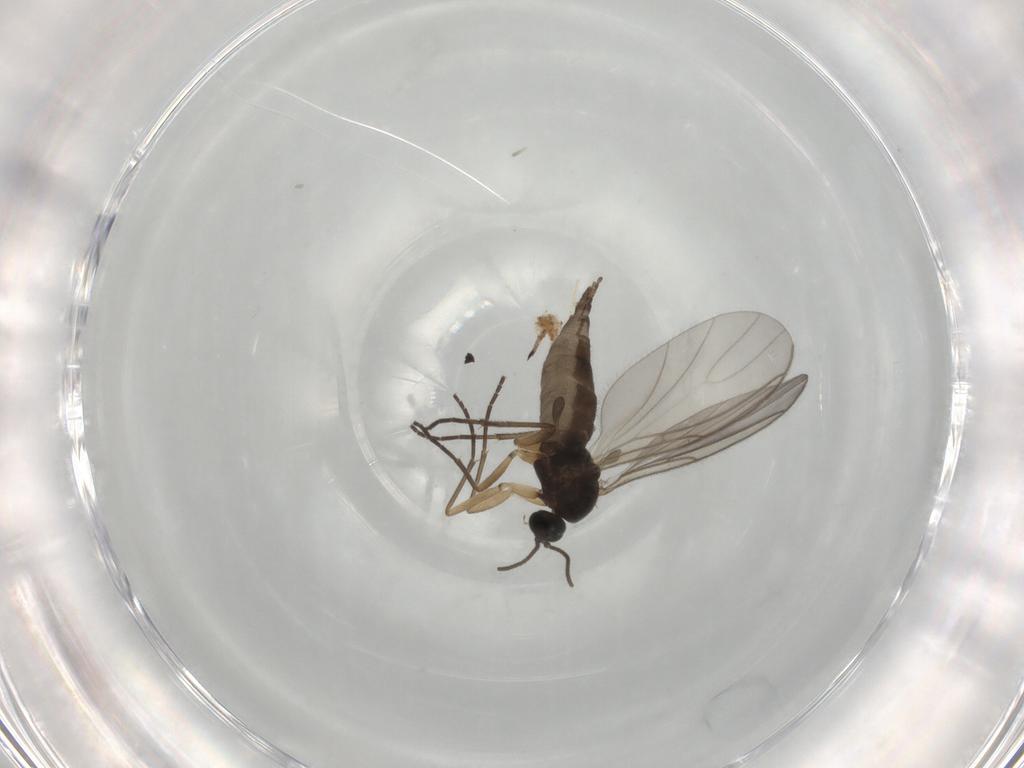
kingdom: Animalia
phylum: Arthropoda
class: Insecta
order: Diptera
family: Sciaridae
